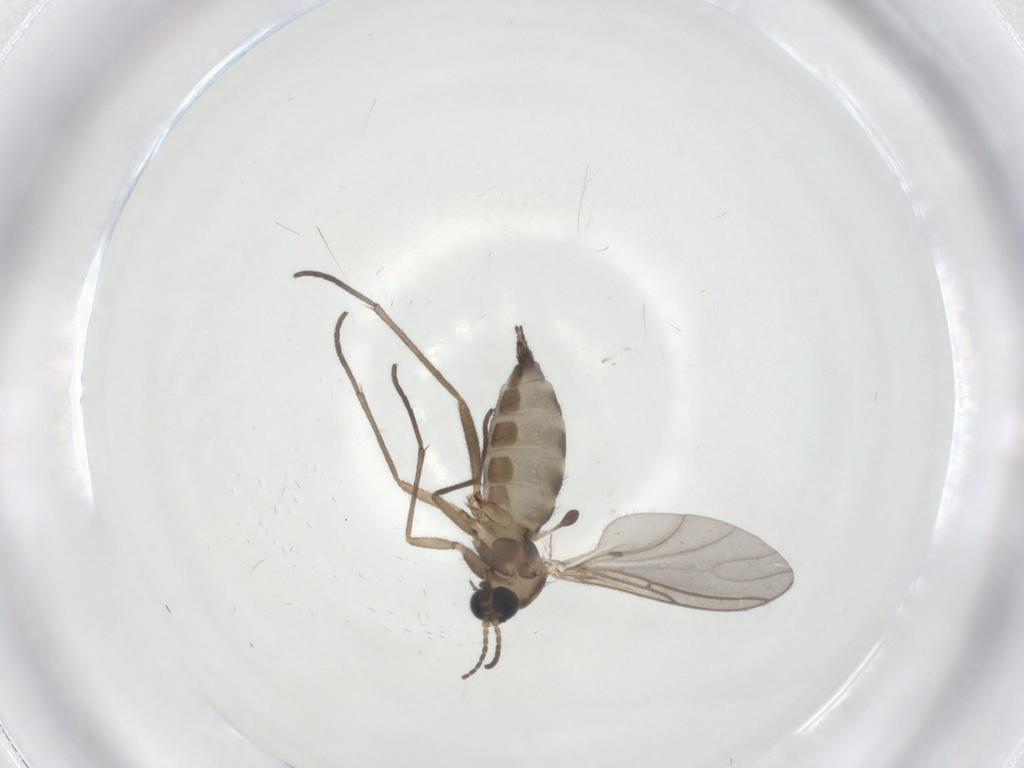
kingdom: Animalia
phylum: Arthropoda
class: Insecta
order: Diptera
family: Sciaridae
